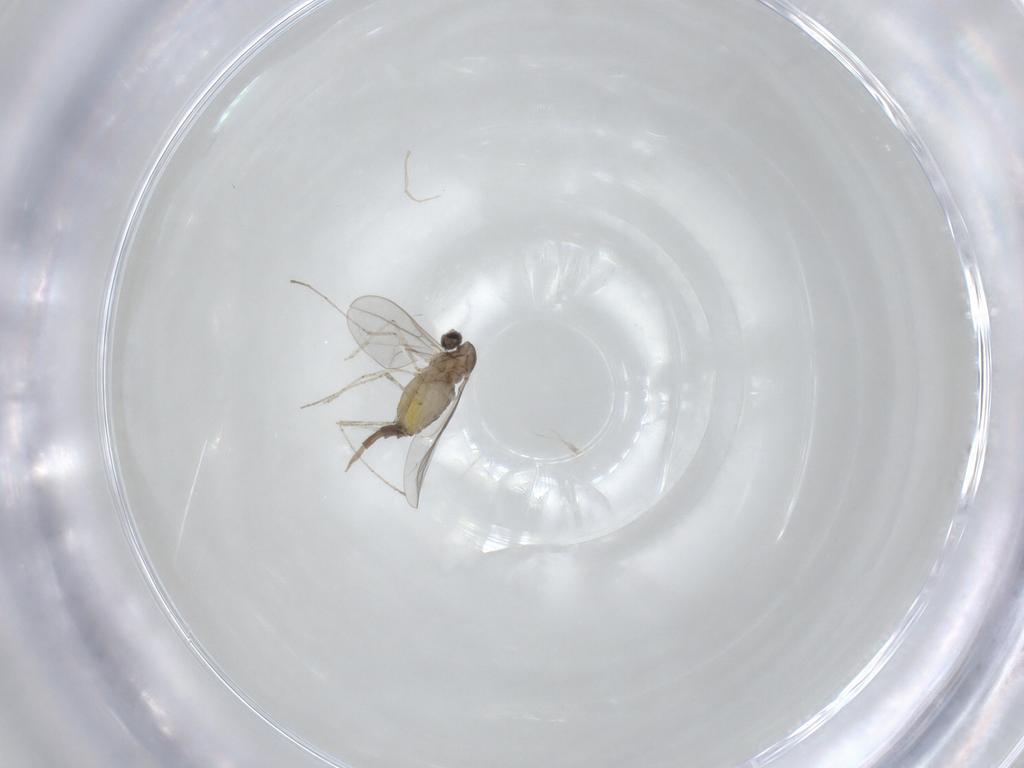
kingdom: Animalia
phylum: Arthropoda
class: Insecta
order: Diptera
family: Cecidomyiidae
